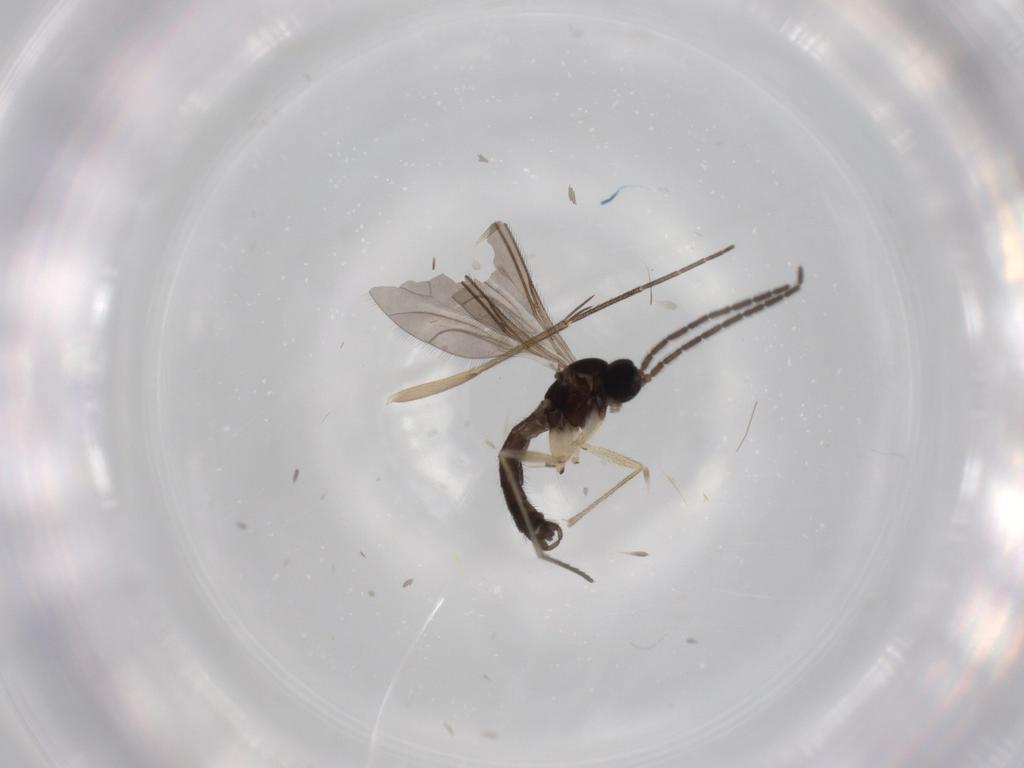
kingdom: Animalia
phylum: Arthropoda
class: Insecta
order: Diptera
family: Sciaridae
